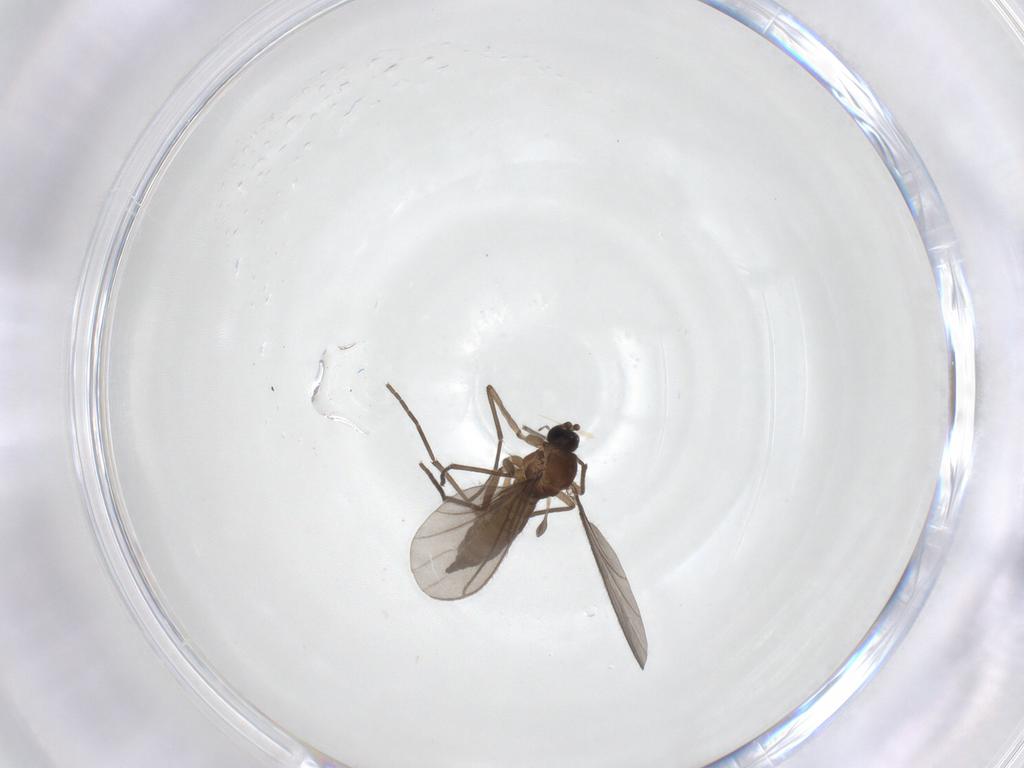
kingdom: Animalia
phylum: Arthropoda
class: Insecta
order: Diptera
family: Sciaridae
